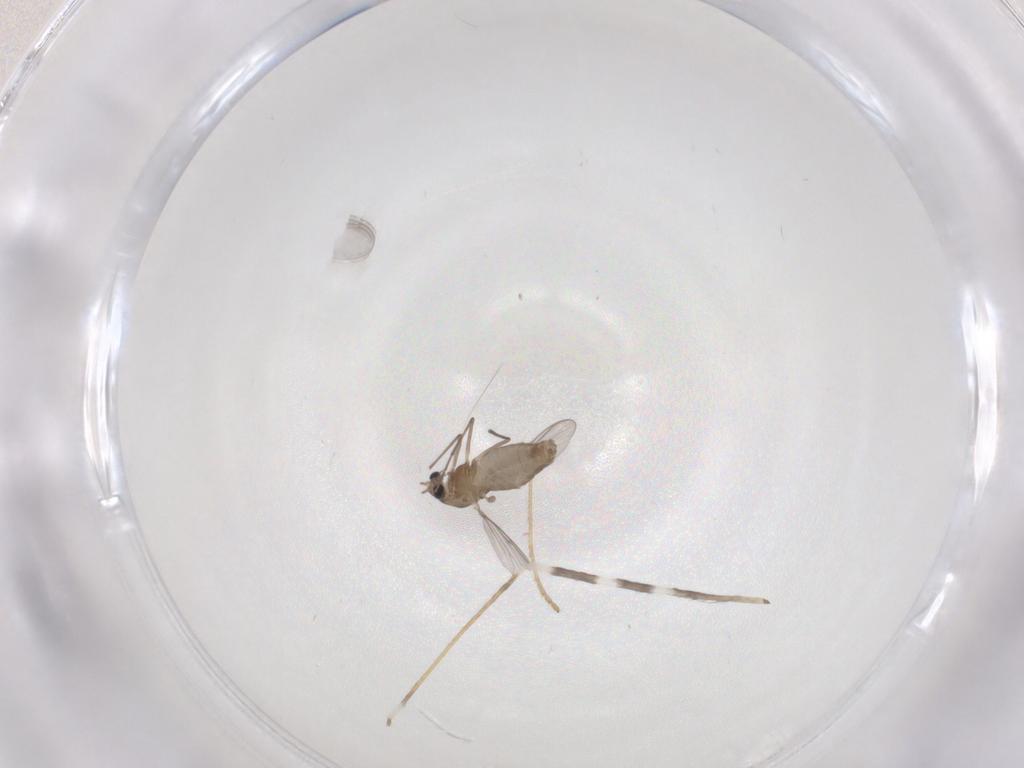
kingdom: Animalia
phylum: Arthropoda
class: Insecta
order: Diptera
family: Chironomidae
